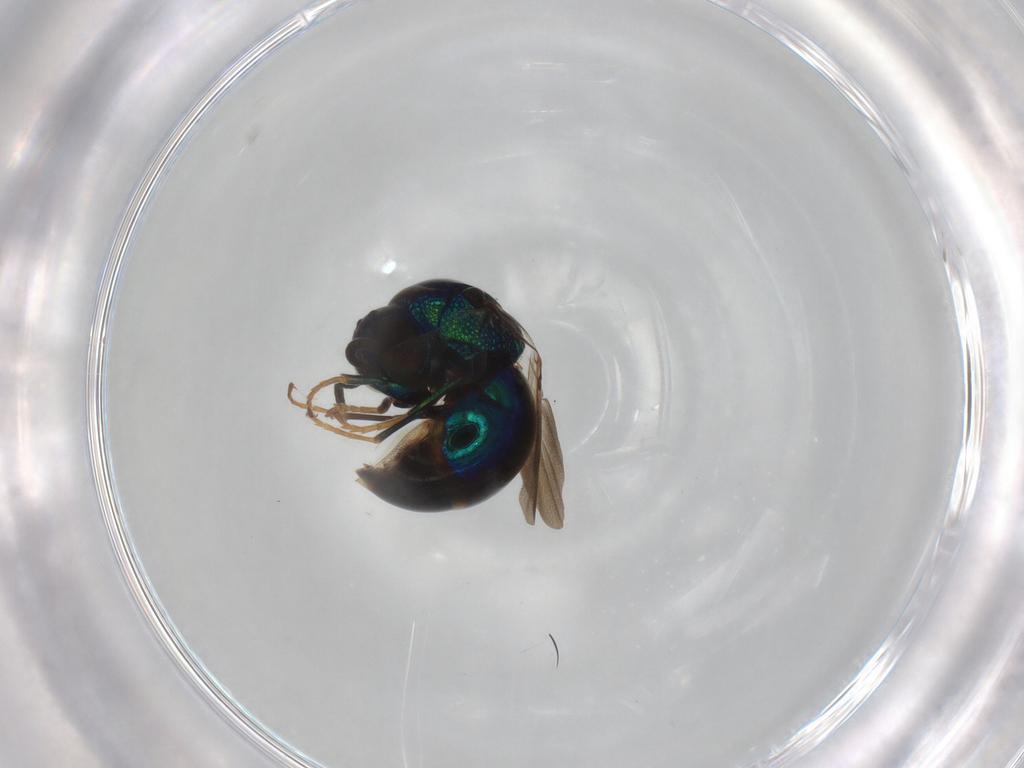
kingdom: Animalia
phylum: Arthropoda
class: Insecta
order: Hymenoptera
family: Chrysididae
